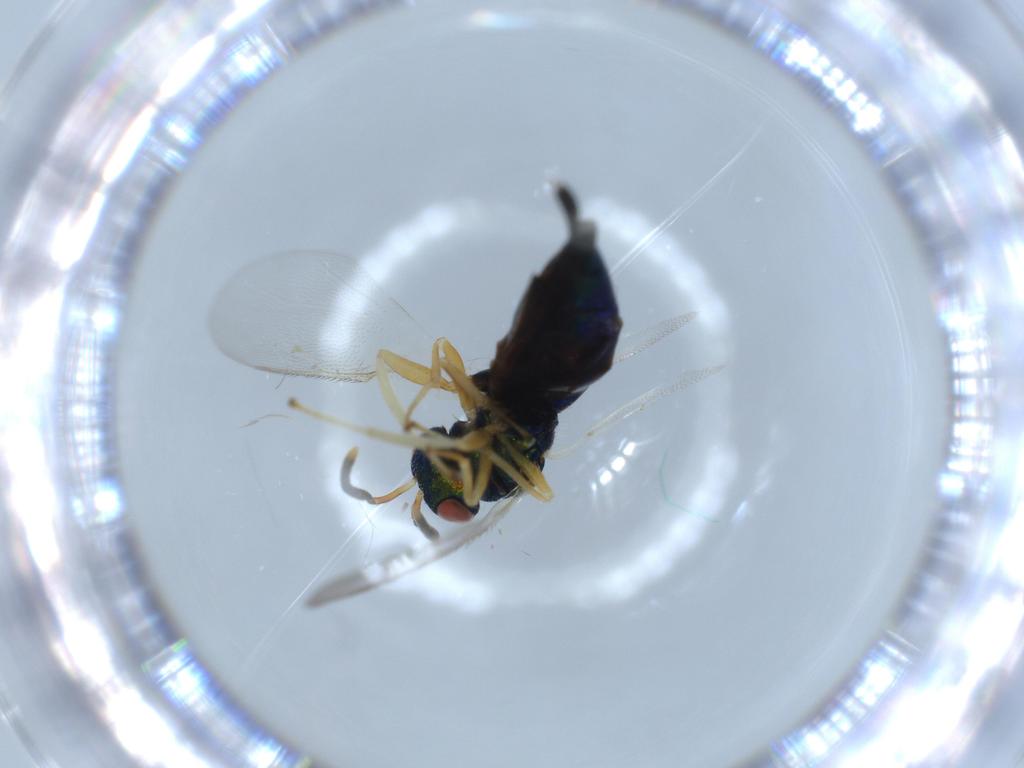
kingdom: Animalia
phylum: Arthropoda
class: Insecta
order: Hymenoptera
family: Pteromalidae
